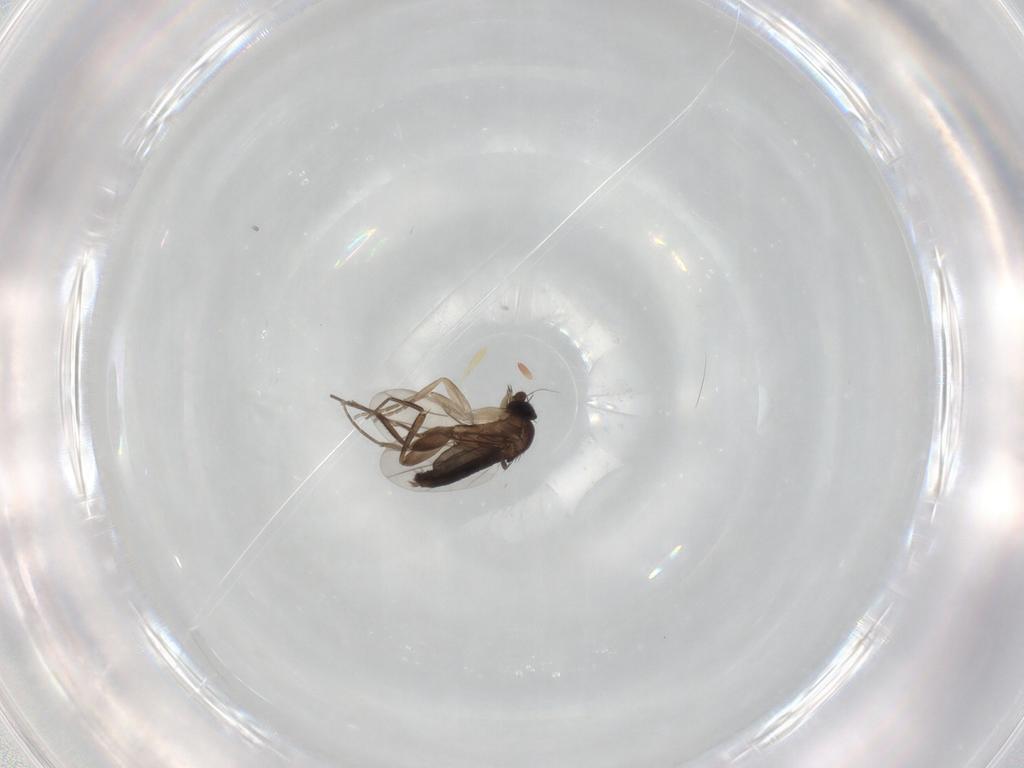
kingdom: Animalia
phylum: Arthropoda
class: Insecta
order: Diptera
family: Phoridae
